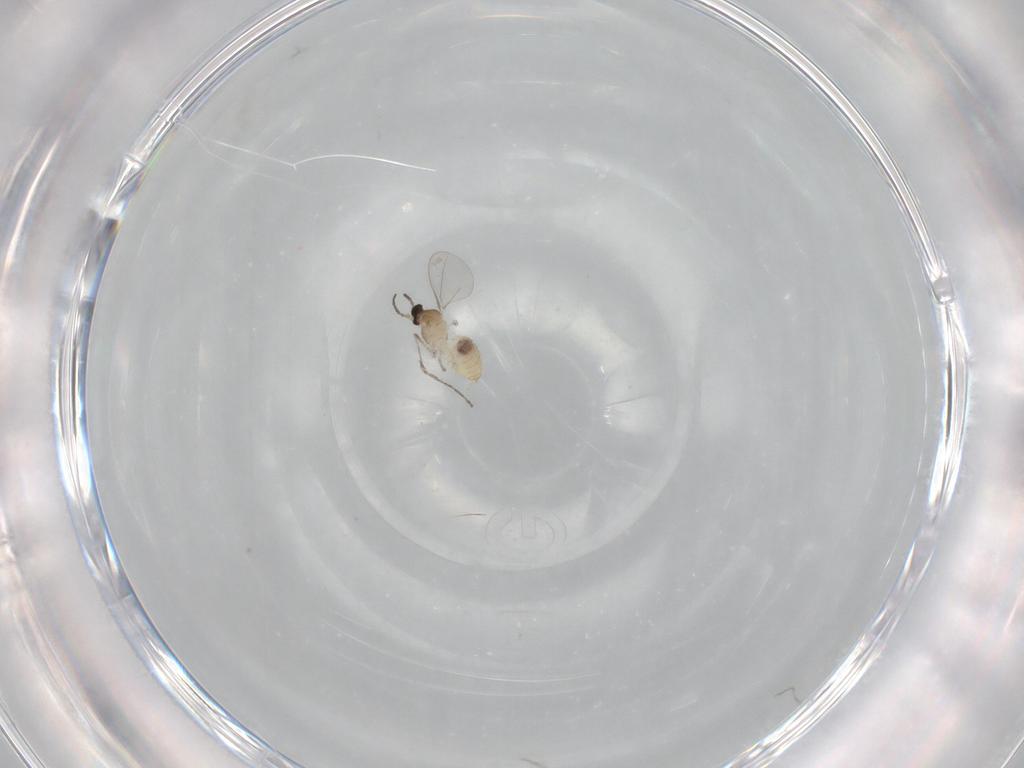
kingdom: Animalia
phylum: Arthropoda
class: Insecta
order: Diptera
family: Cecidomyiidae
